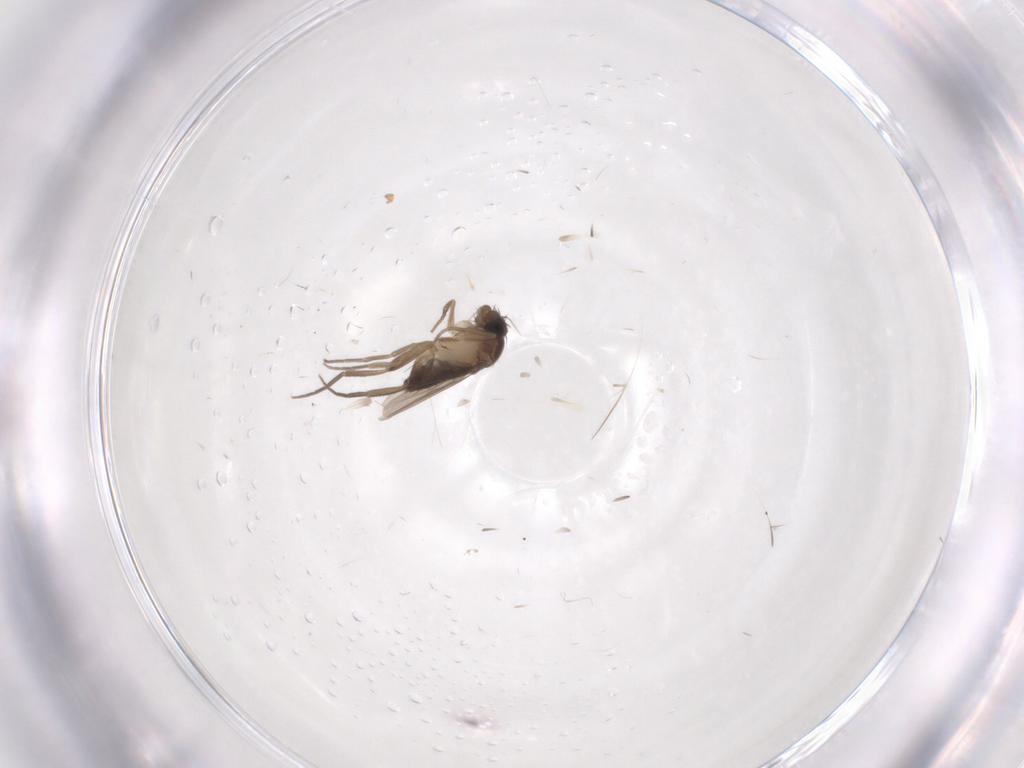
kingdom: Animalia
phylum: Arthropoda
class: Insecta
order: Diptera
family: Phoridae
